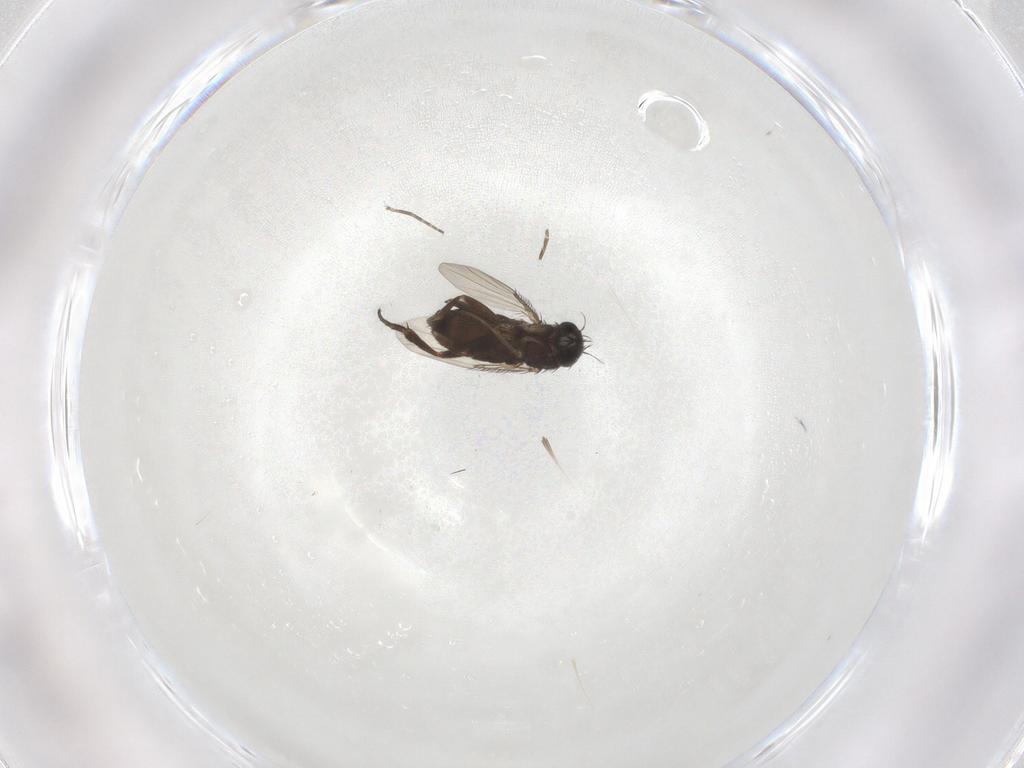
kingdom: Animalia
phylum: Arthropoda
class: Insecta
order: Diptera
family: Phoridae
